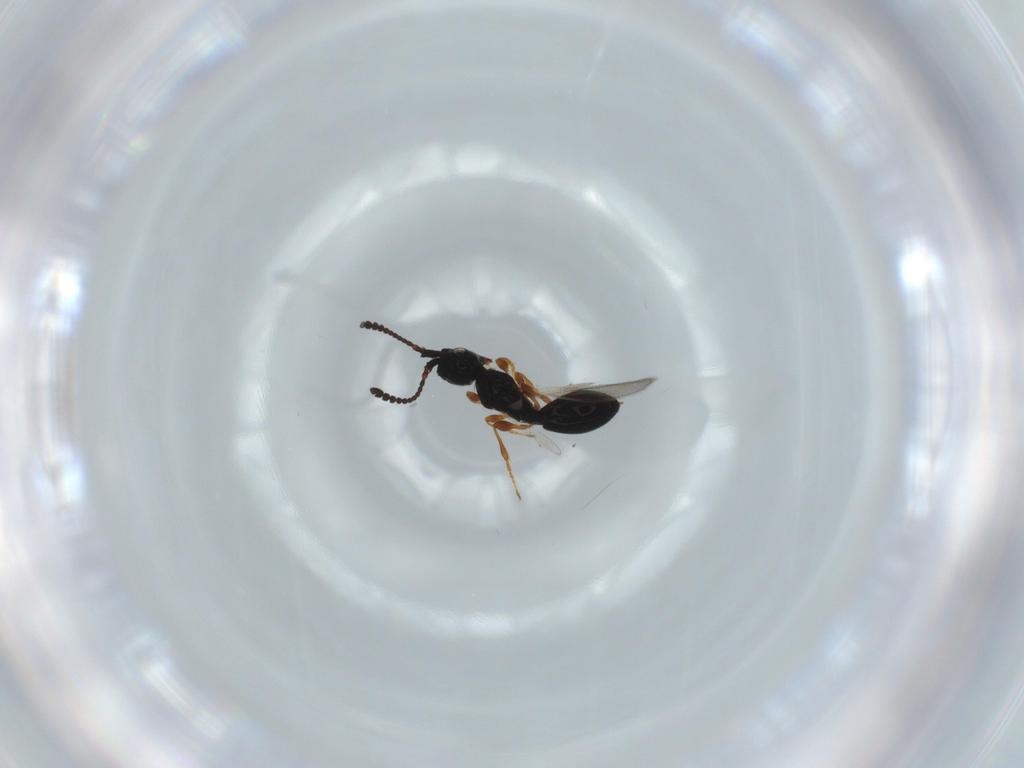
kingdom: Animalia
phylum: Arthropoda
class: Insecta
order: Hymenoptera
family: Diapriidae
